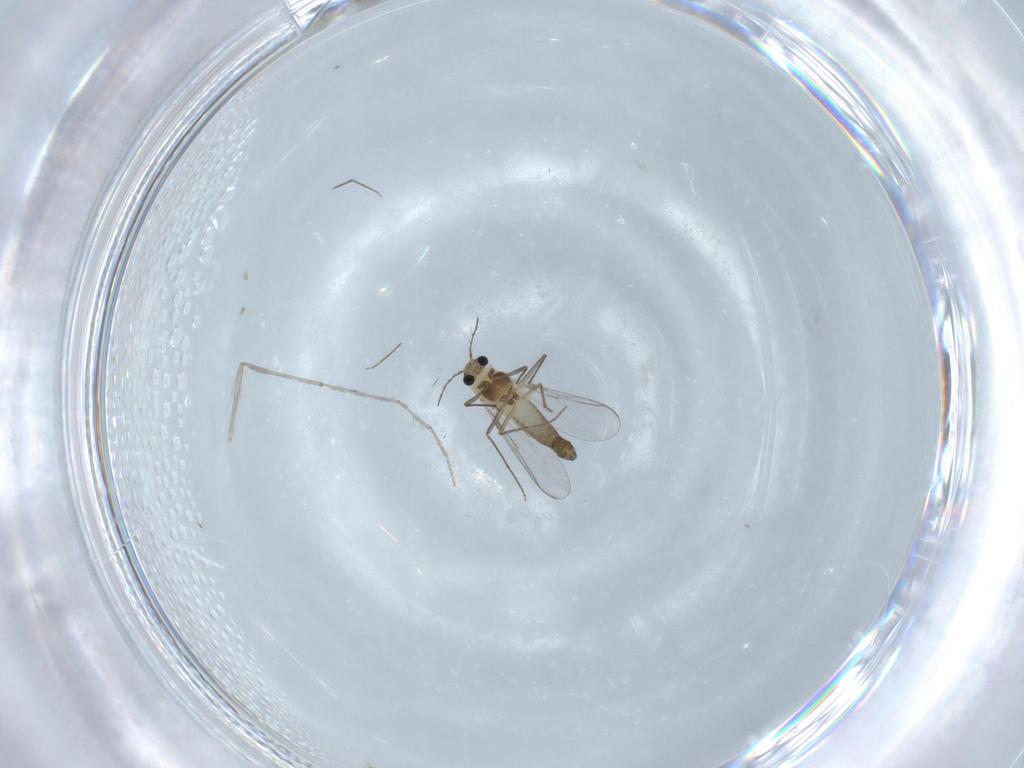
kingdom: Animalia
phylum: Arthropoda
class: Insecta
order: Diptera
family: Chironomidae
